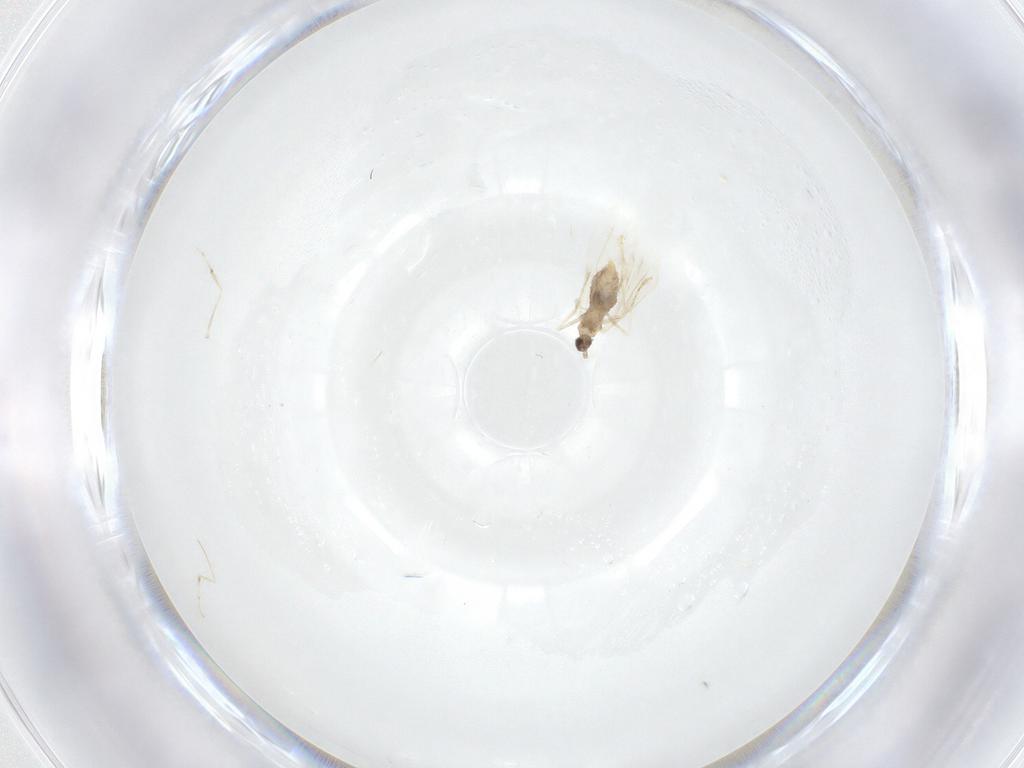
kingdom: Animalia
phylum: Arthropoda
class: Insecta
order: Diptera
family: Cecidomyiidae
